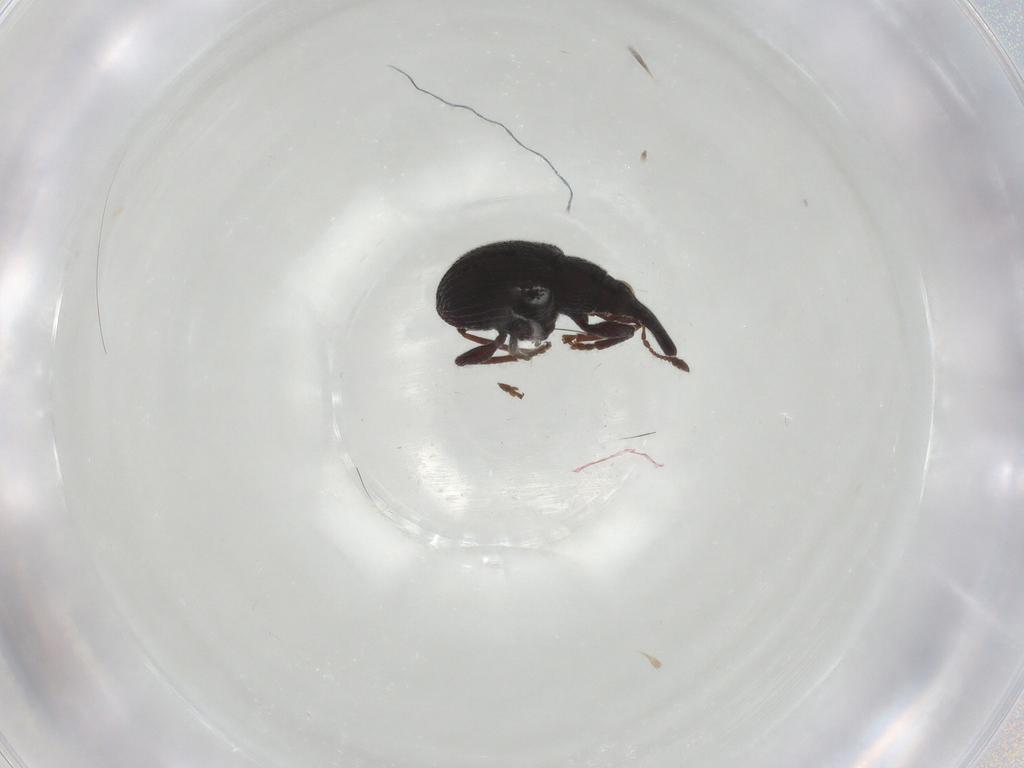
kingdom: Animalia
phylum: Arthropoda
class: Insecta
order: Coleoptera
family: Brentidae
